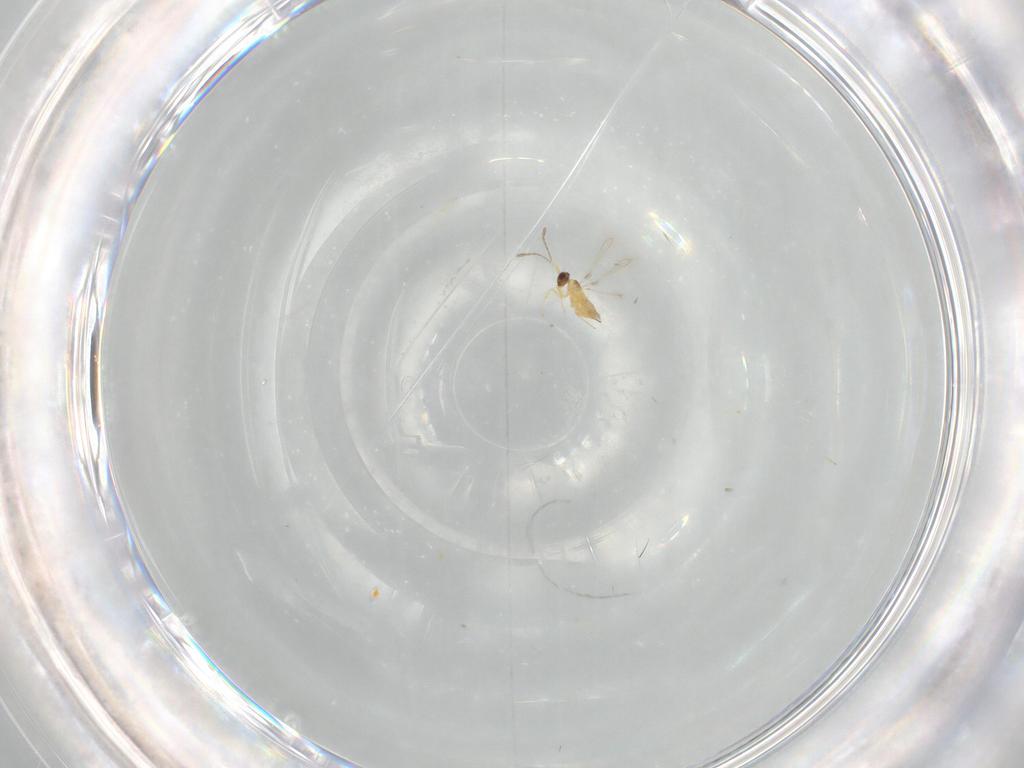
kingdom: Animalia
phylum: Arthropoda
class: Insecta
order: Hymenoptera
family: Mymaridae
